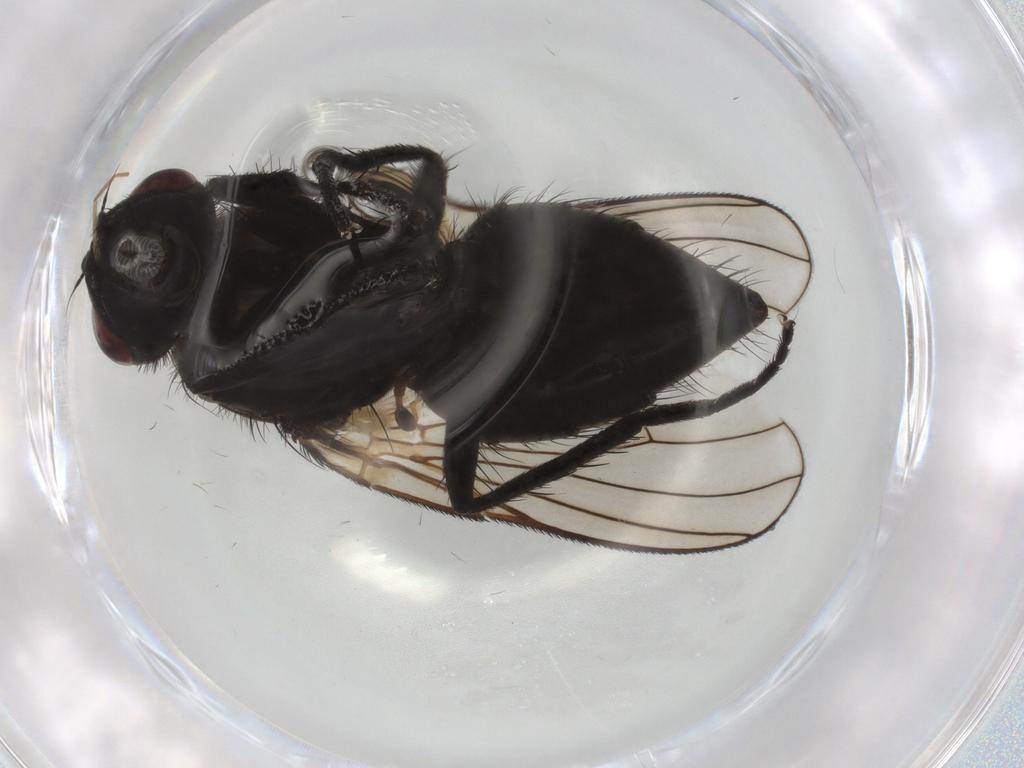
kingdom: Animalia
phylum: Arthropoda
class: Insecta
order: Diptera
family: Muscidae
